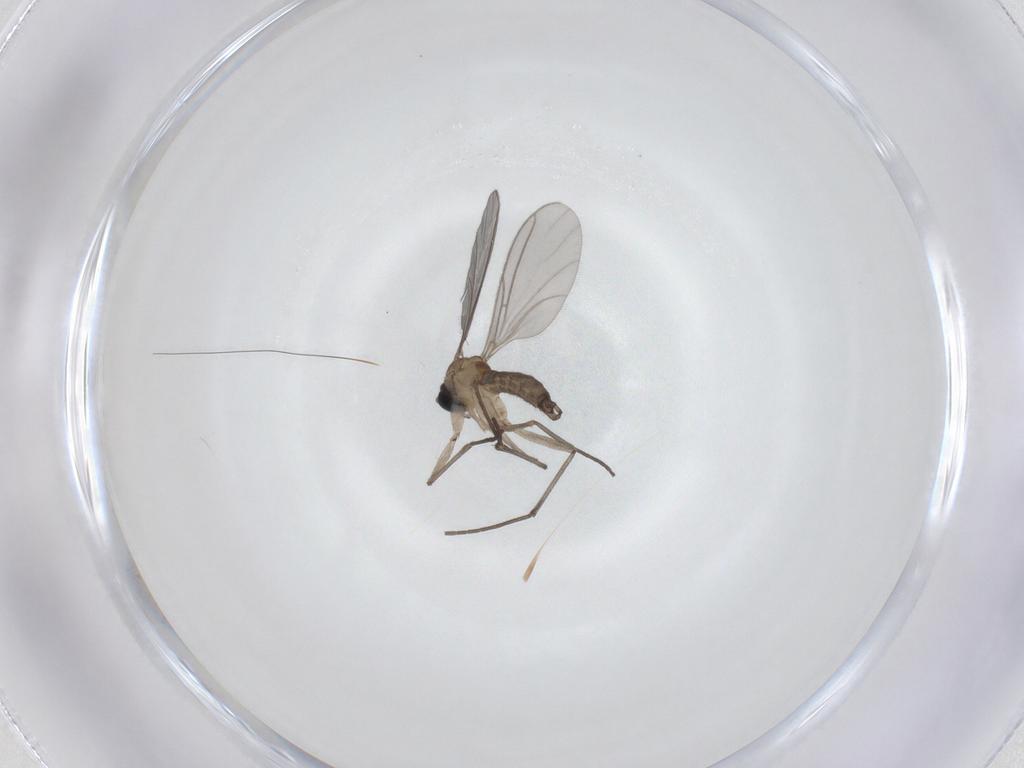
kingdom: Animalia
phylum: Arthropoda
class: Insecta
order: Diptera
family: Sciaridae
